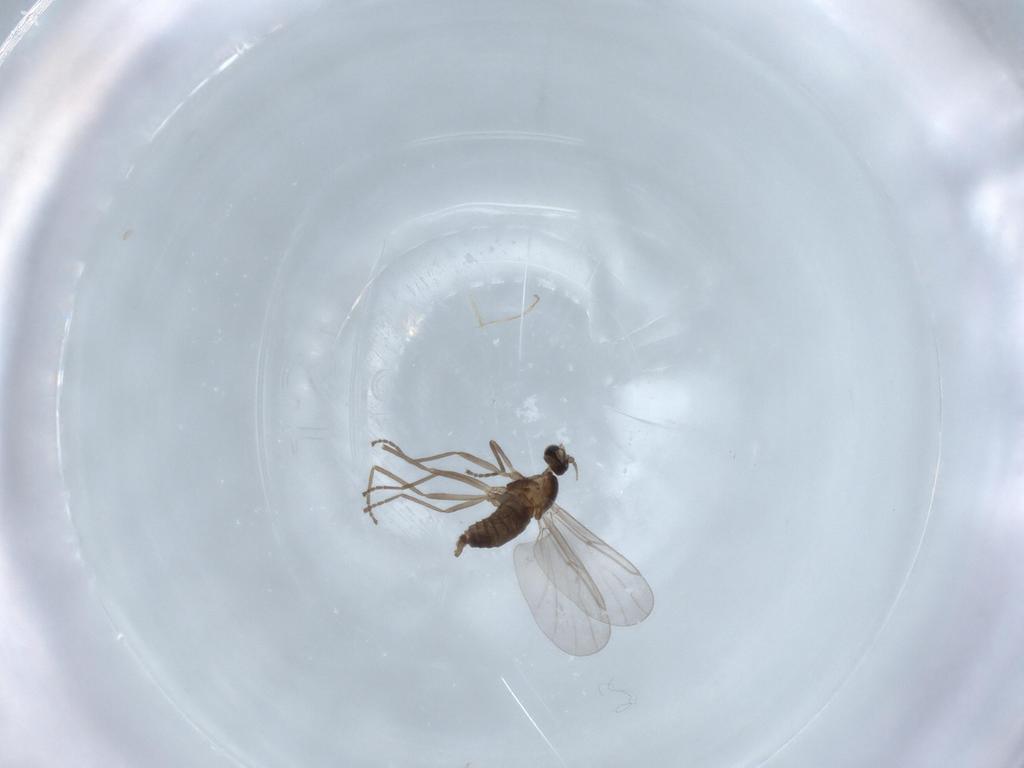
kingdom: Animalia
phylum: Arthropoda
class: Insecta
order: Diptera
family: Cecidomyiidae
